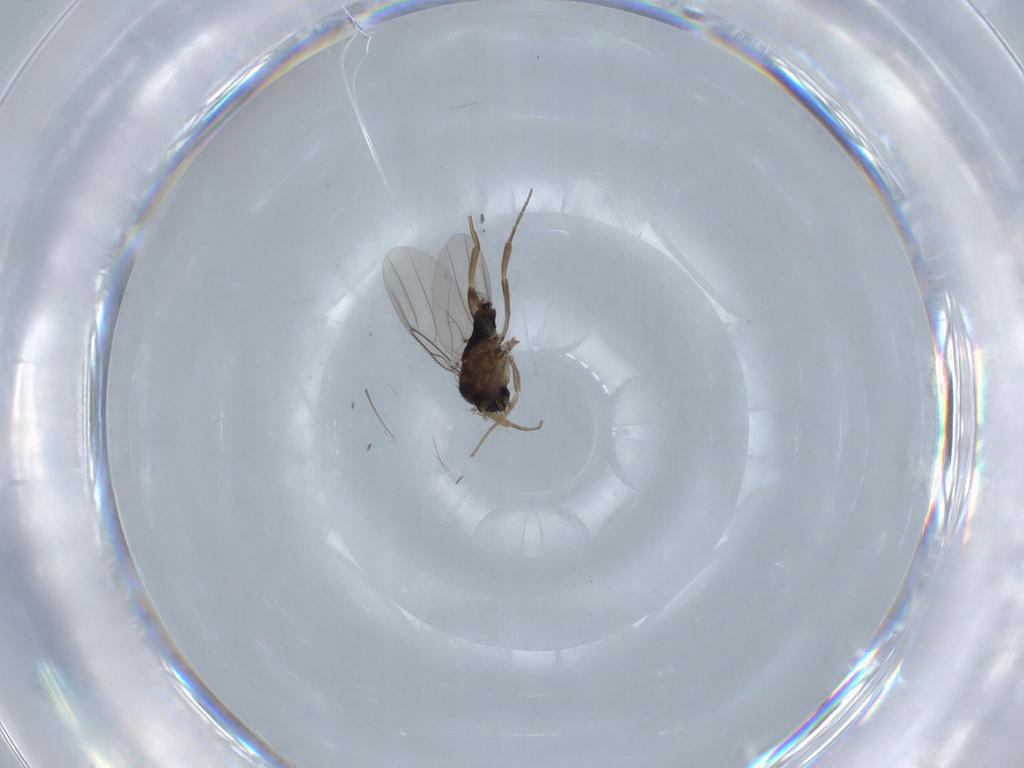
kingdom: Animalia
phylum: Arthropoda
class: Insecta
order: Diptera
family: Phoridae
